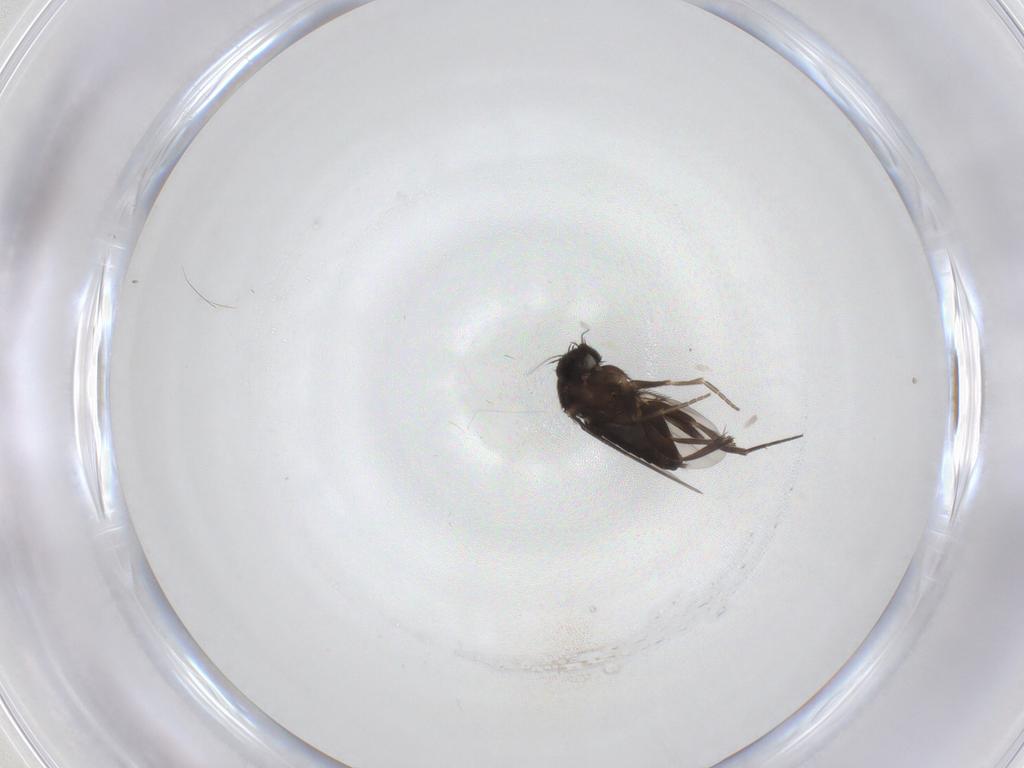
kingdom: Animalia
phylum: Arthropoda
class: Insecta
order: Diptera
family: Phoridae
